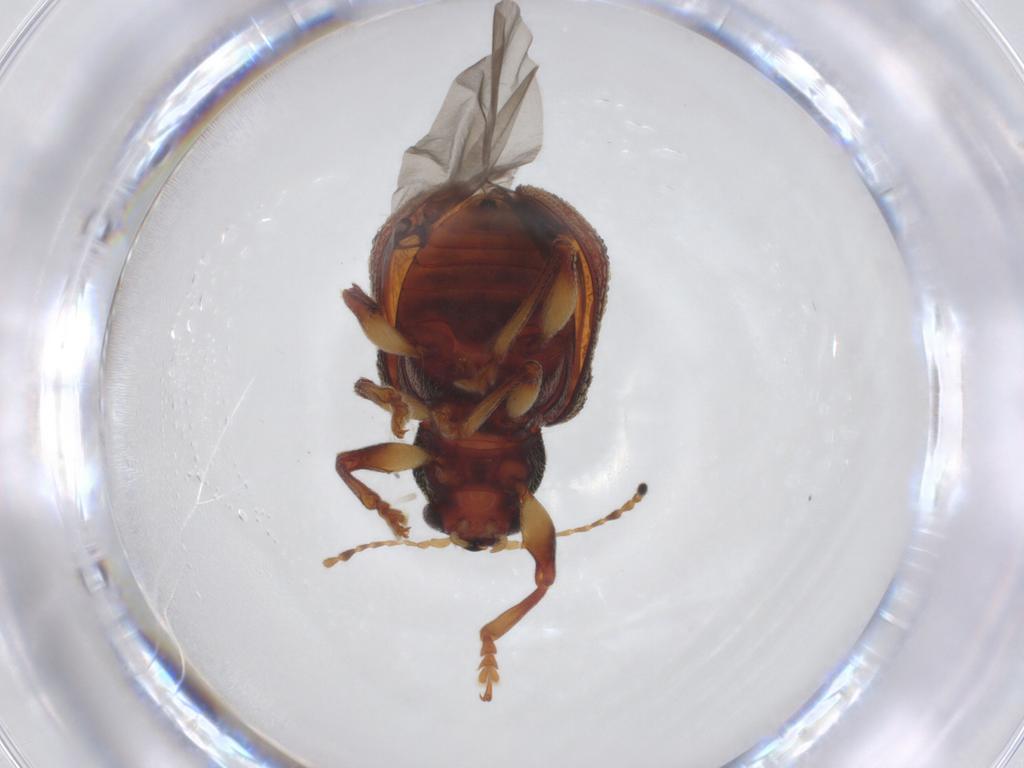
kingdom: Animalia
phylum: Arthropoda
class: Insecta
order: Coleoptera
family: Chrysomelidae
